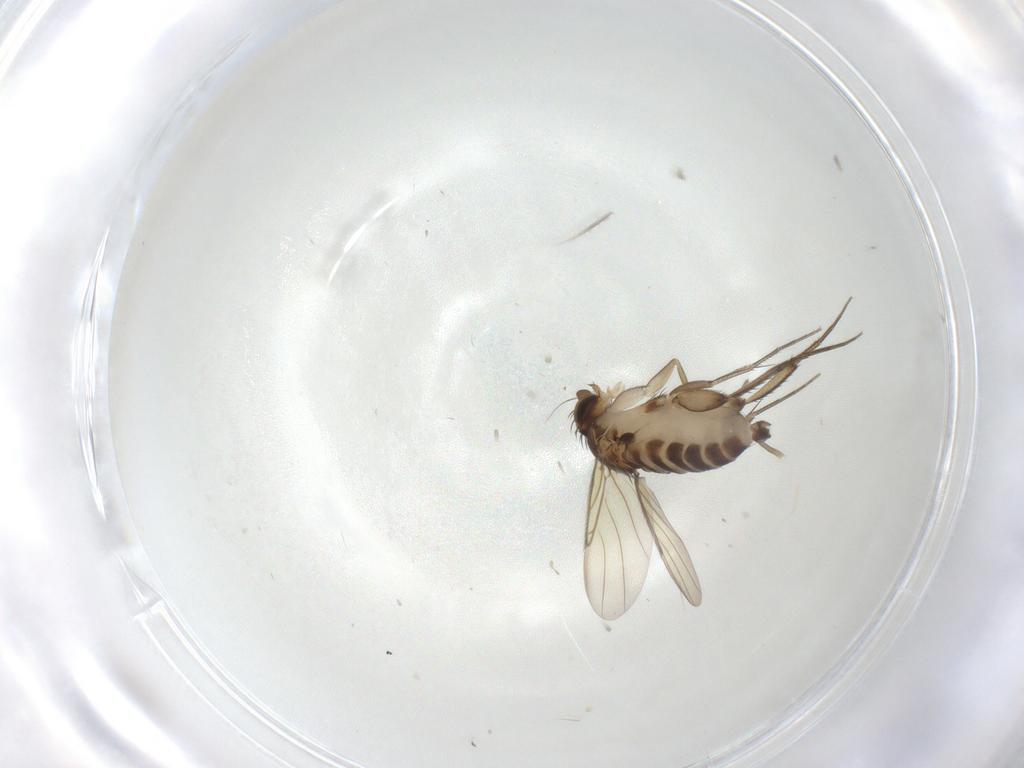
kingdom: Animalia
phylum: Arthropoda
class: Insecta
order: Diptera
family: Phoridae
